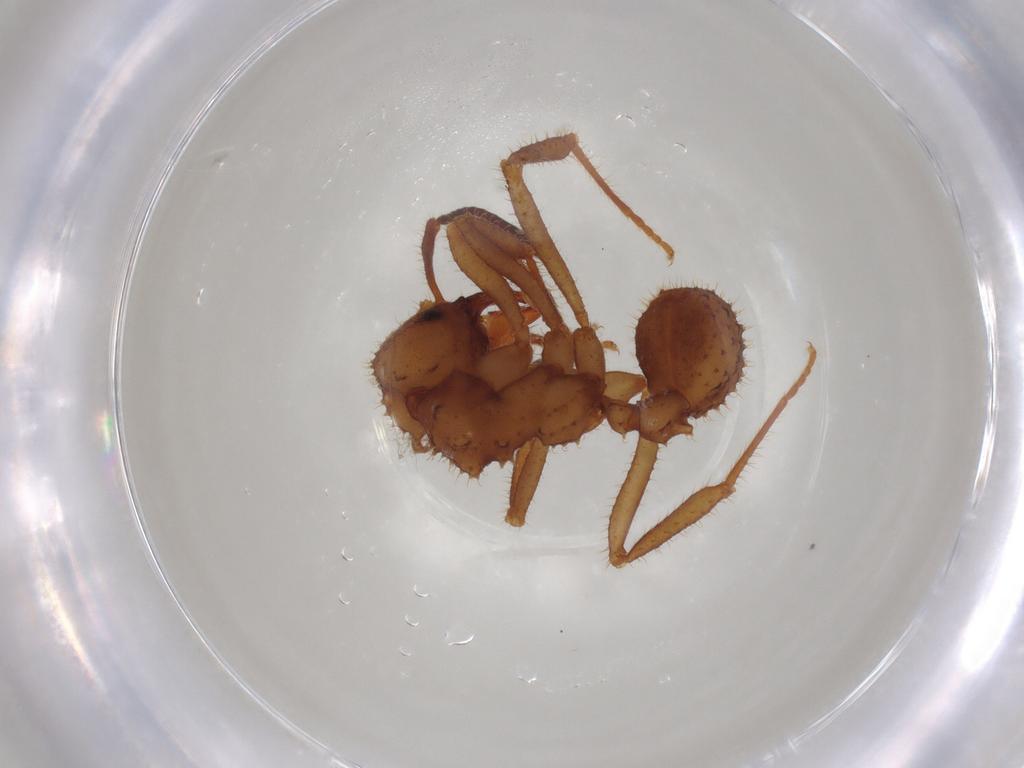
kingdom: Animalia
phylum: Arthropoda
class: Insecta
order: Hymenoptera
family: Formicidae
